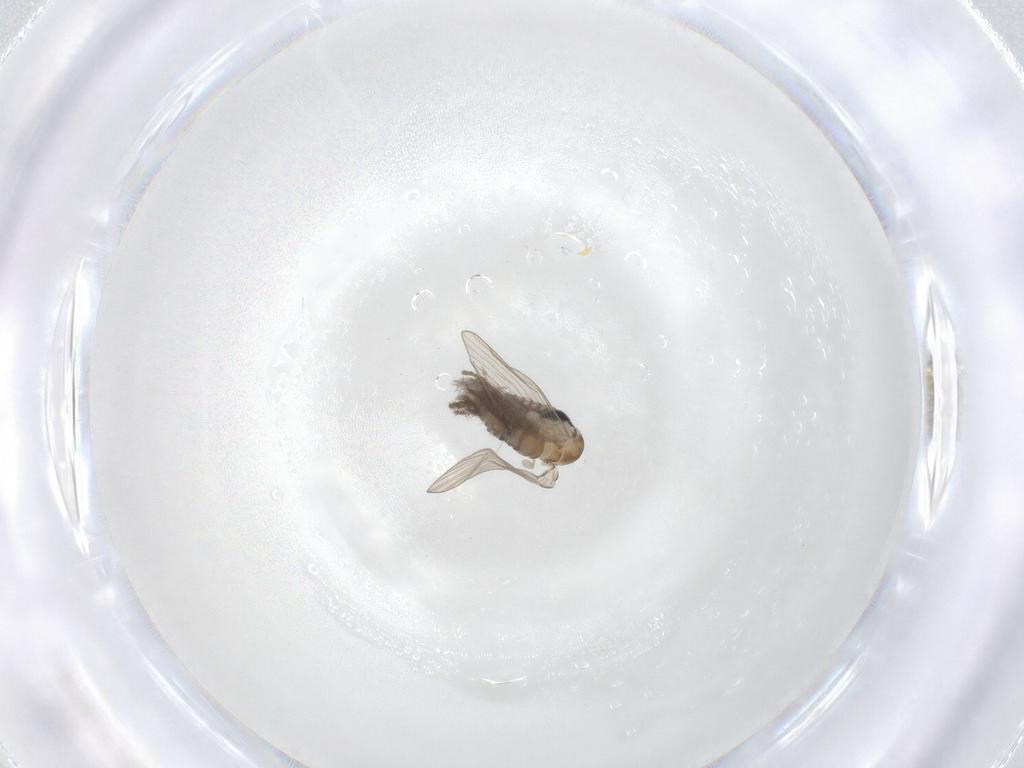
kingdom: Animalia
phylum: Arthropoda
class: Insecta
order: Diptera
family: Psychodidae
